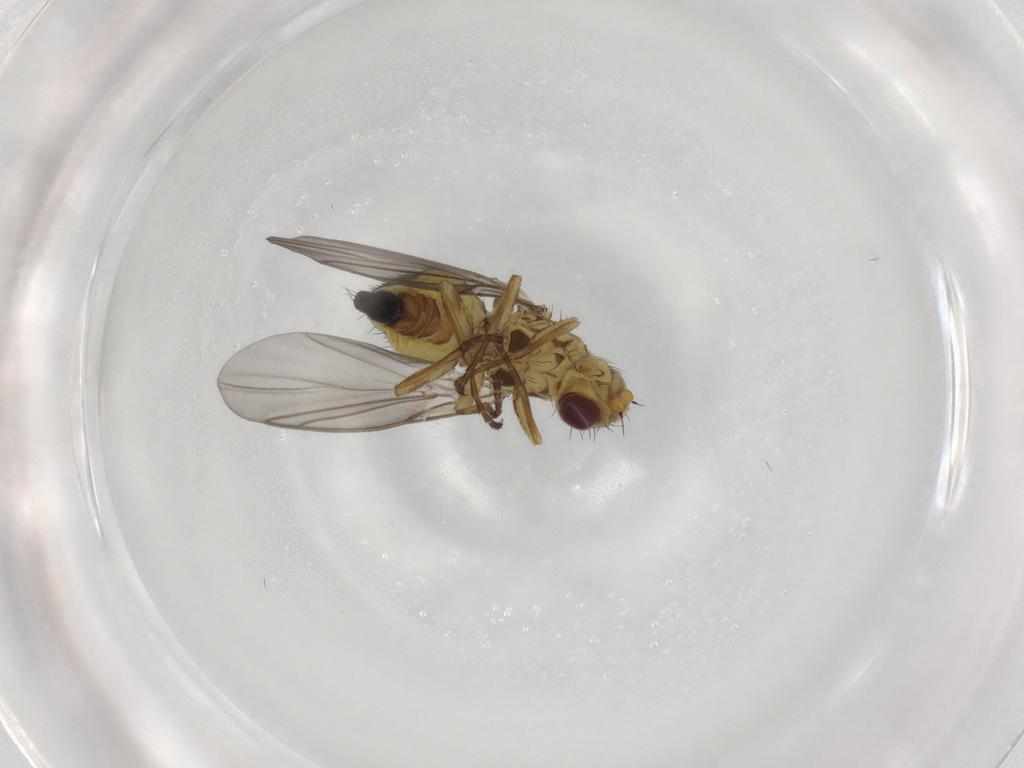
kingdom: Animalia
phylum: Arthropoda
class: Insecta
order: Diptera
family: Agromyzidae
